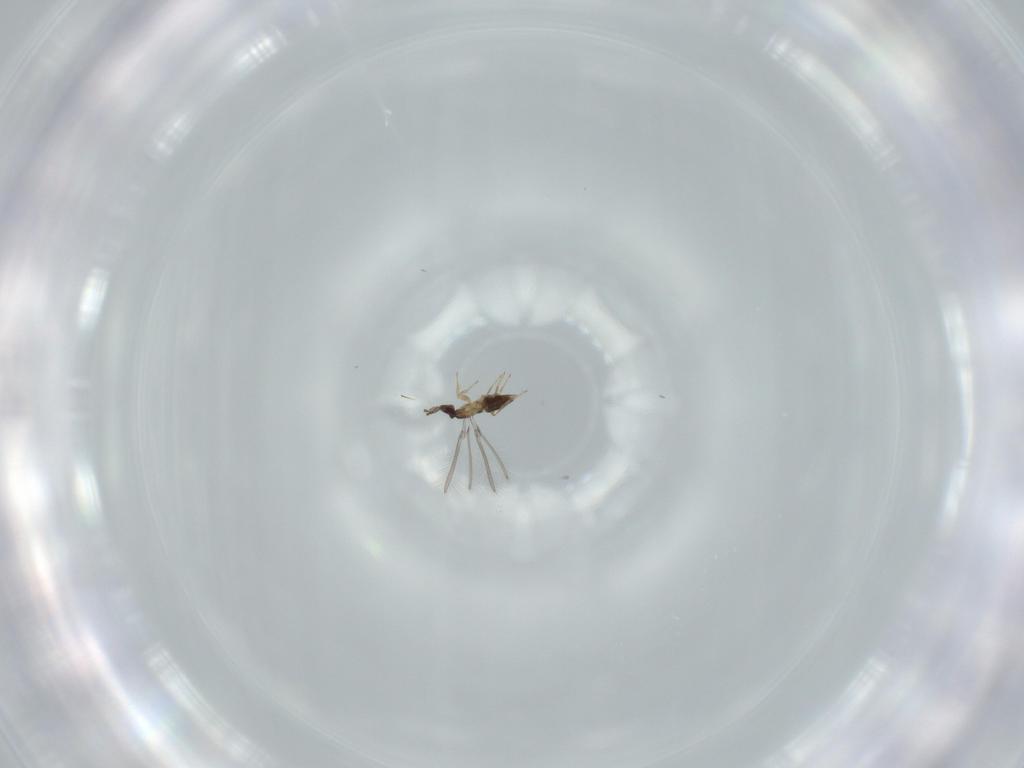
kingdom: Animalia
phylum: Arthropoda
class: Insecta
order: Hymenoptera
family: Mymaridae
